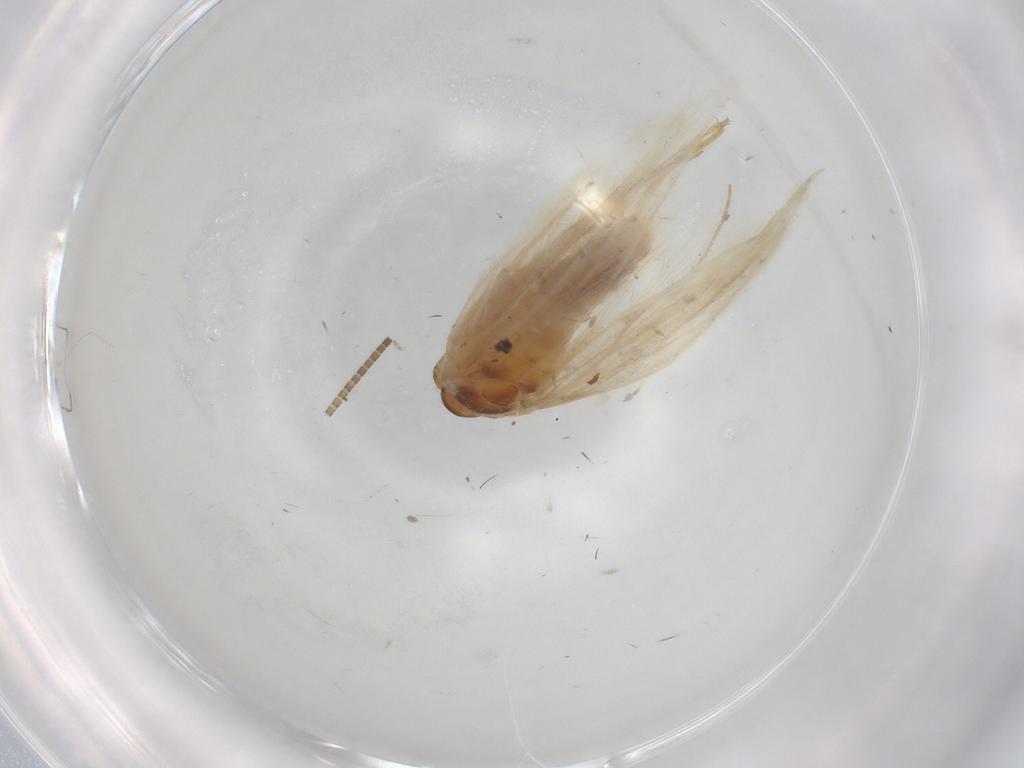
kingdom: Animalia
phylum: Arthropoda
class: Insecta
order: Lepidoptera
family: Gelechiidae
